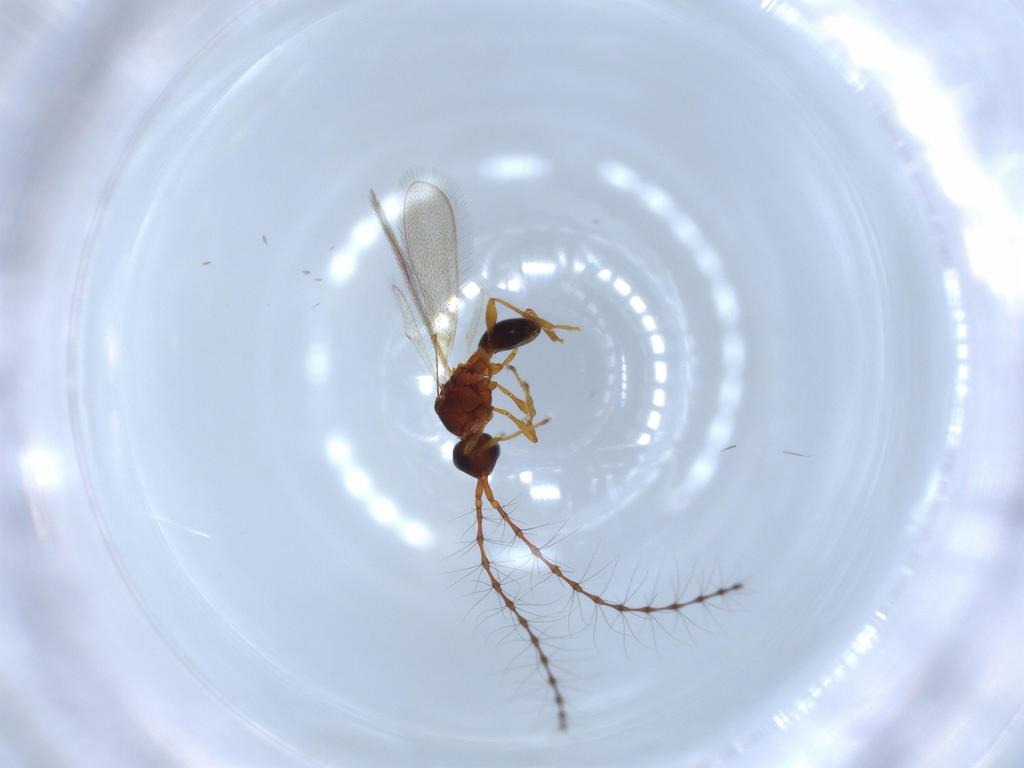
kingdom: Animalia
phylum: Arthropoda
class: Insecta
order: Hymenoptera
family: Diapriidae
